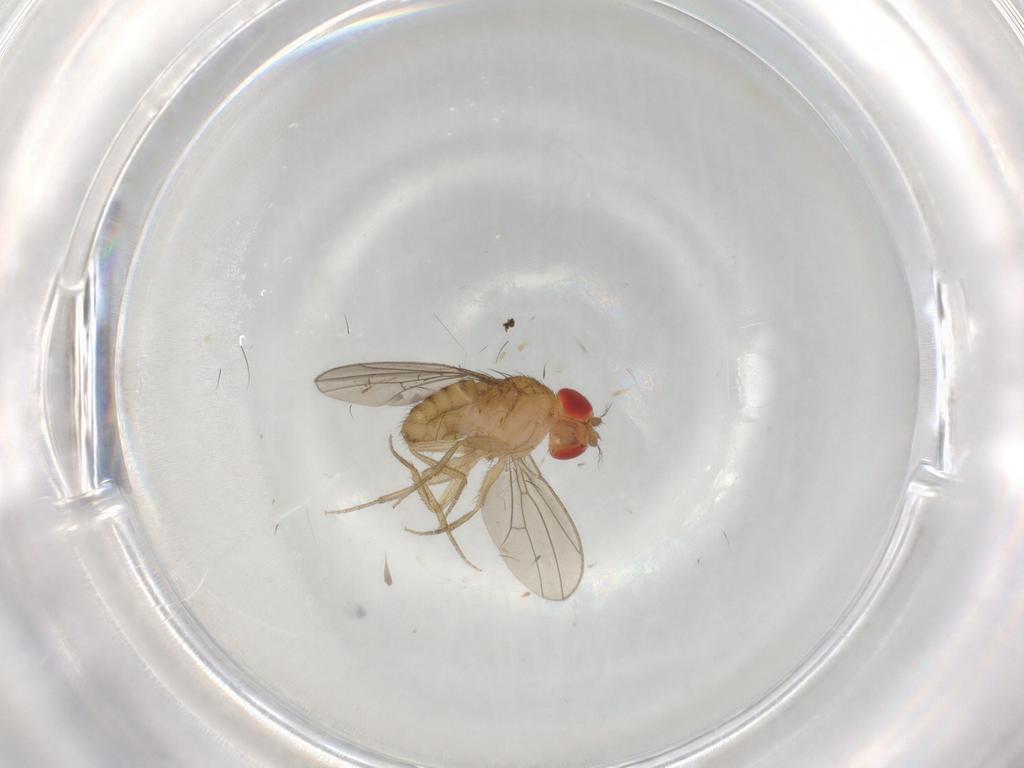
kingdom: Animalia
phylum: Arthropoda
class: Insecta
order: Diptera
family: Drosophilidae
